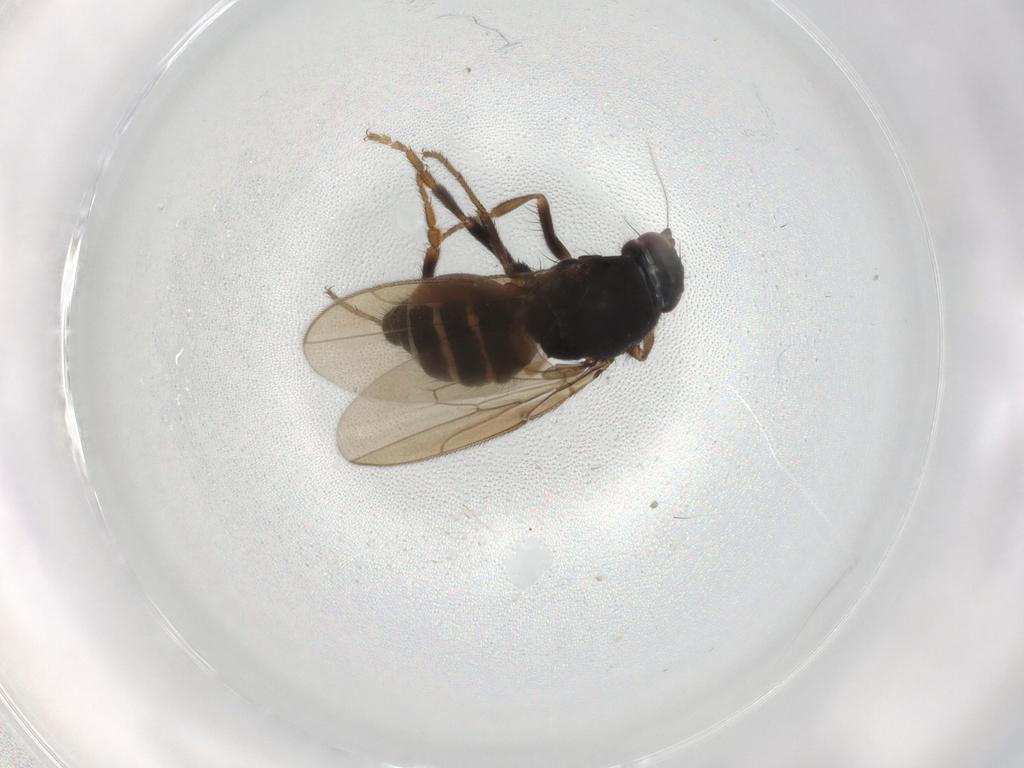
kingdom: Animalia
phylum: Arthropoda
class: Insecta
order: Diptera
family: Sphaeroceridae
